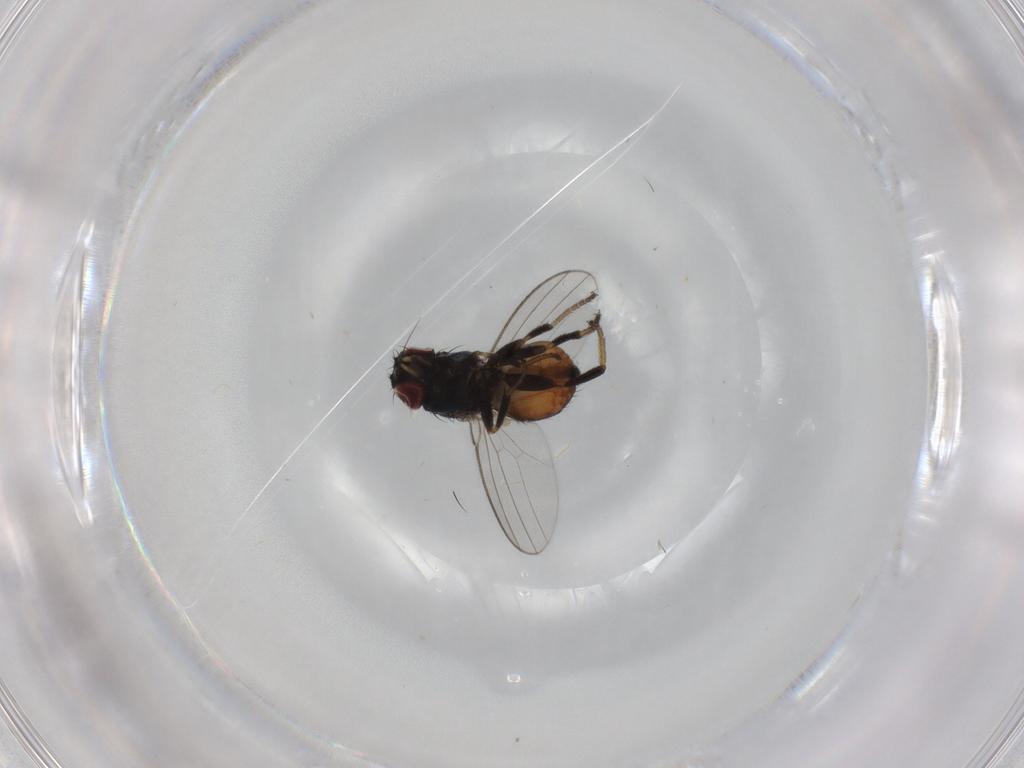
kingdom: Animalia
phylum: Arthropoda
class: Insecta
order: Diptera
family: Milichiidae
